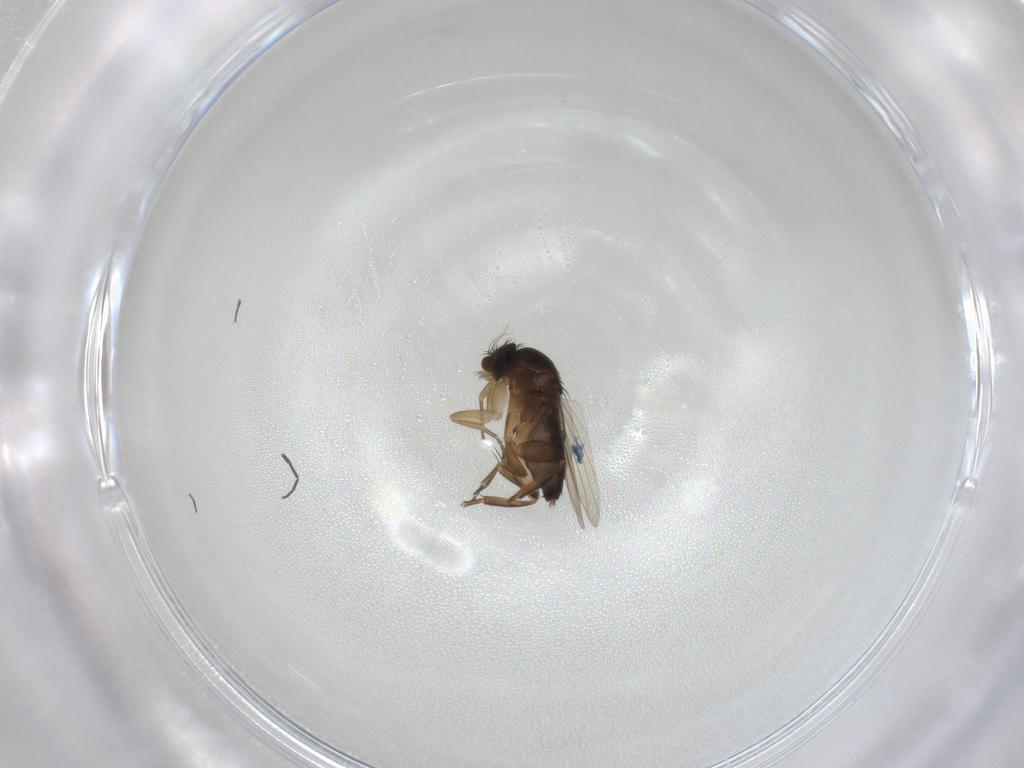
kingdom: Animalia
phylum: Arthropoda
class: Insecta
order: Diptera
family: Phoridae
